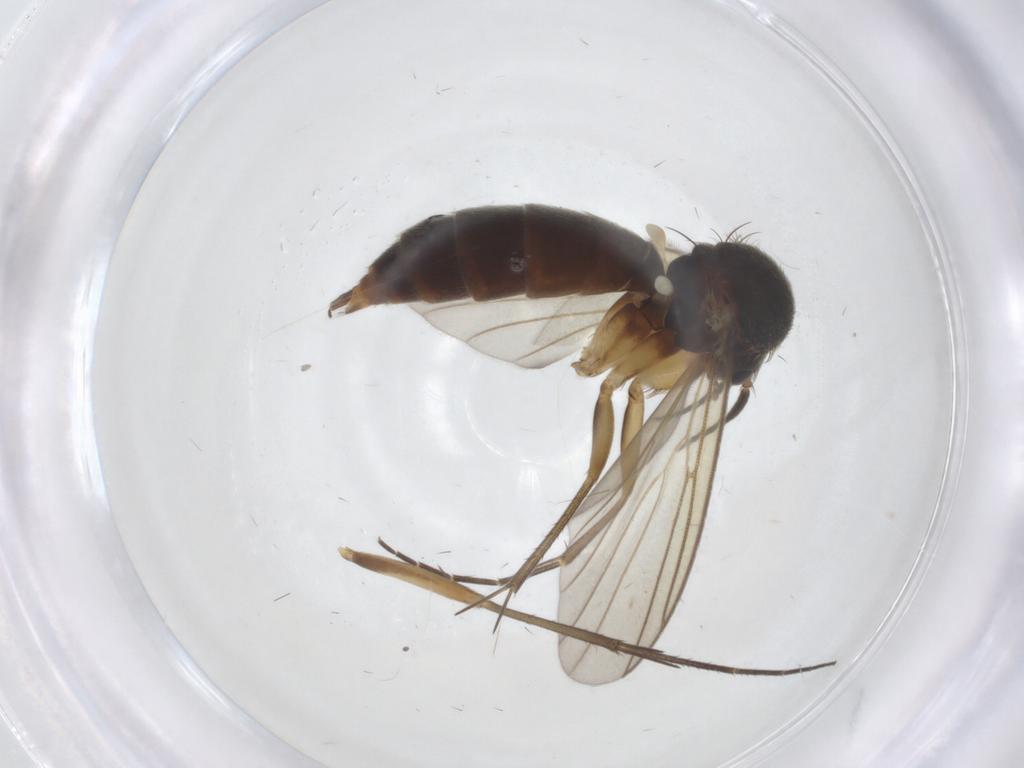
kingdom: Animalia
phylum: Arthropoda
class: Insecta
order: Diptera
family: Mycetophilidae
